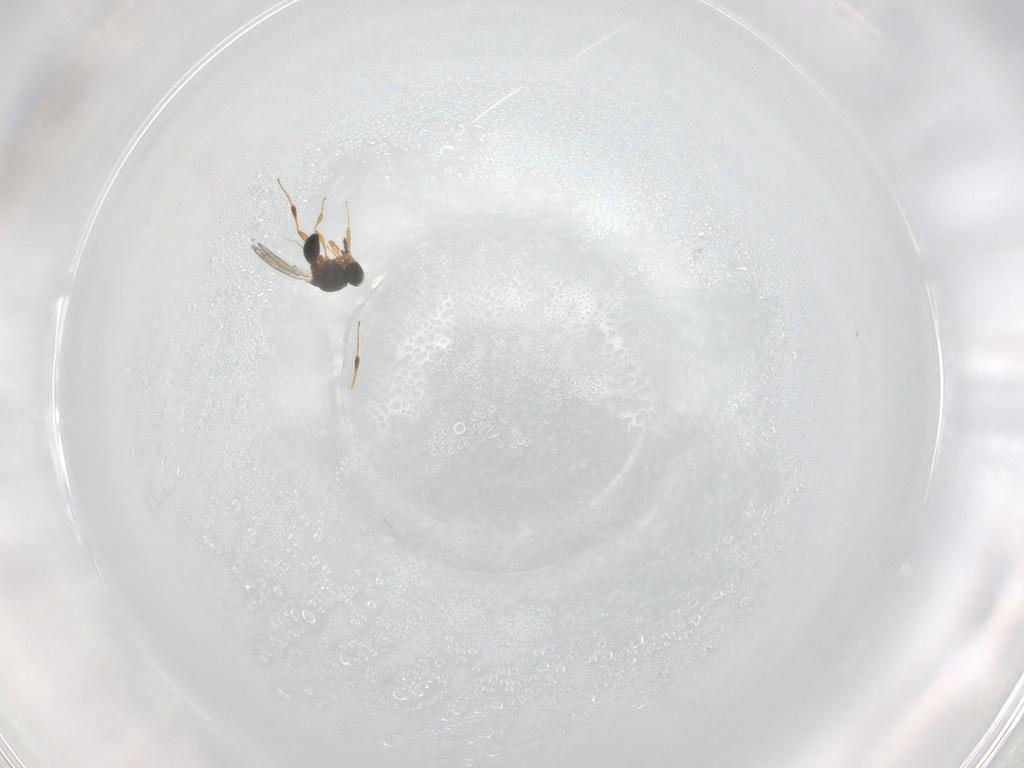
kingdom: Animalia
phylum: Arthropoda
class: Insecta
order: Hymenoptera
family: Platygastridae
